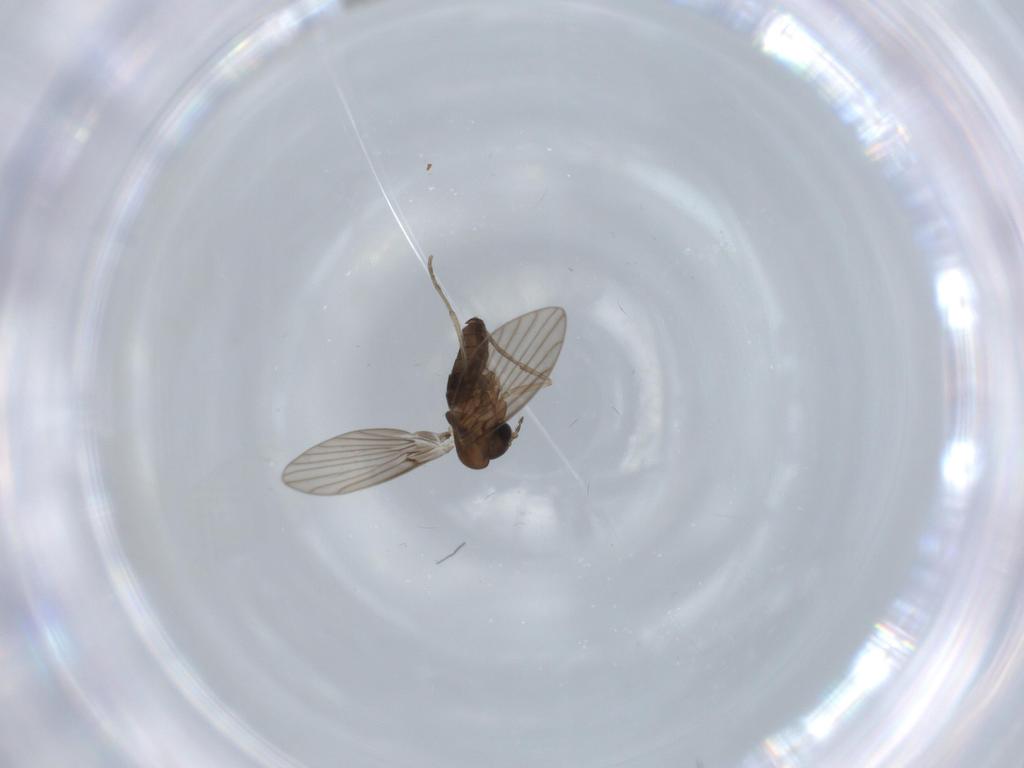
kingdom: Animalia
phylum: Arthropoda
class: Insecta
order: Diptera
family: Psychodidae
